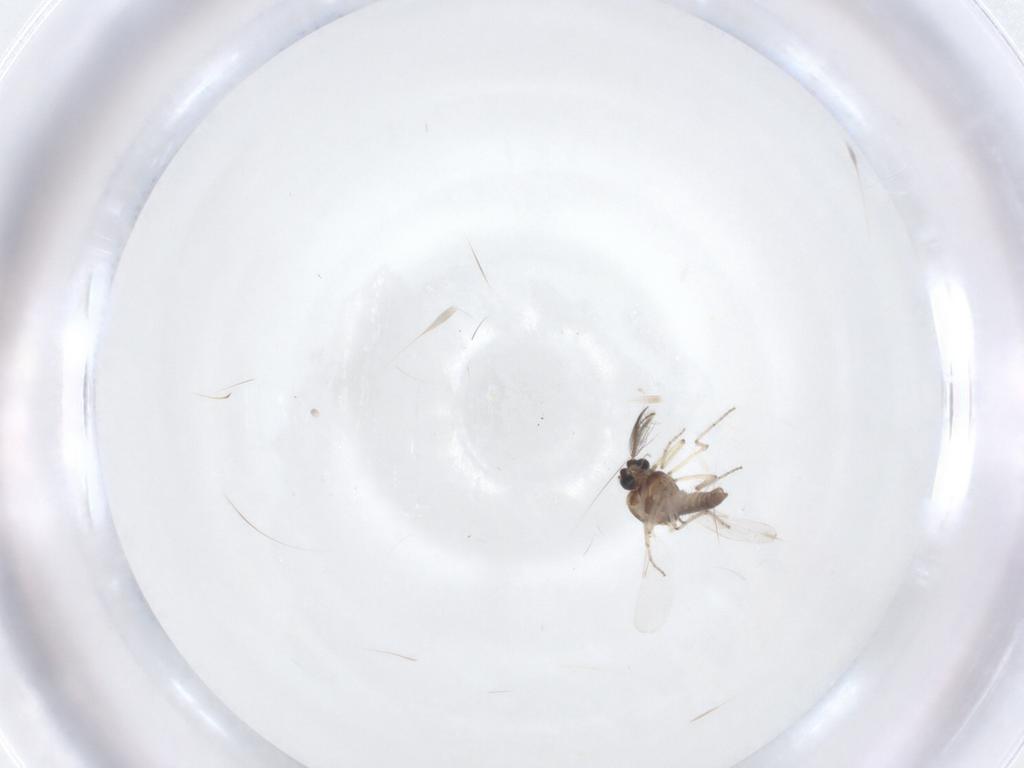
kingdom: Animalia
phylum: Arthropoda
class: Insecta
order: Diptera
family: Ceratopogonidae
